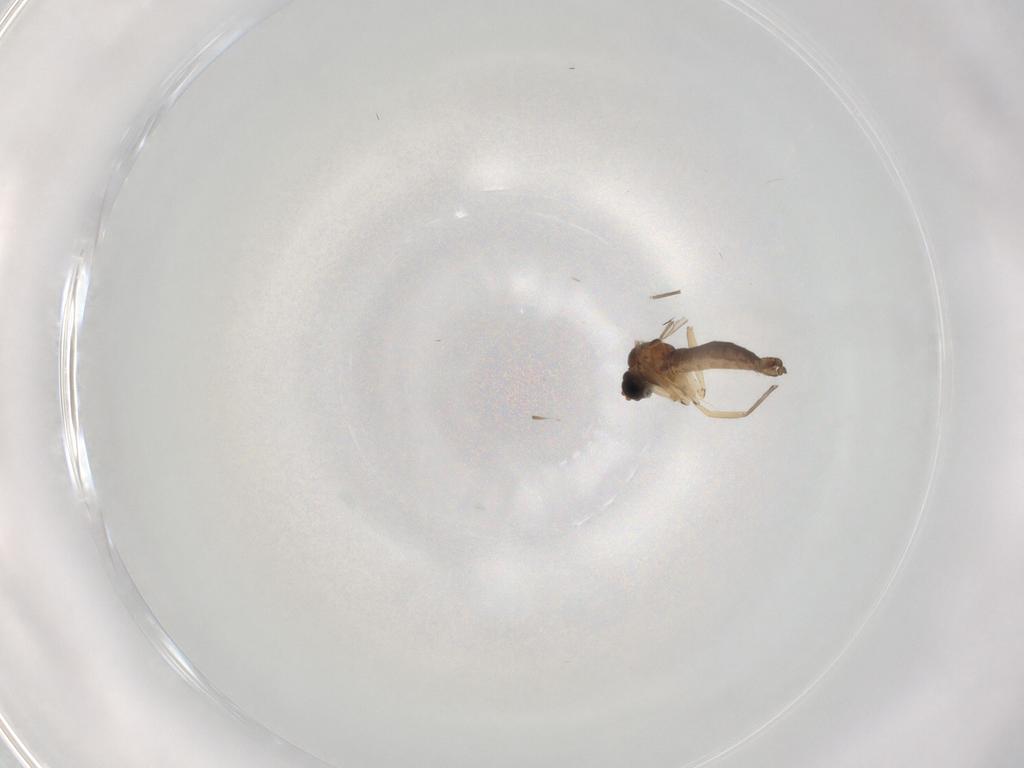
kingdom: Animalia
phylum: Arthropoda
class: Insecta
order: Diptera
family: Sciaridae
